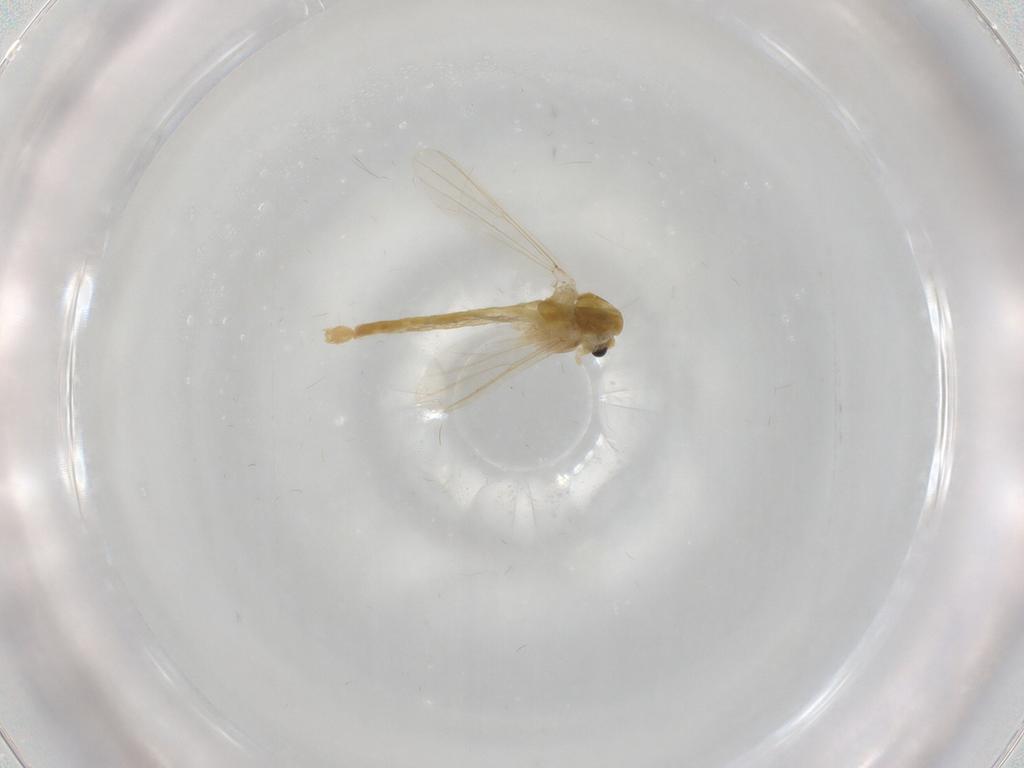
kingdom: Animalia
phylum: Arthropoda
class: Insecta
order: Diptera
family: Chironomidae
